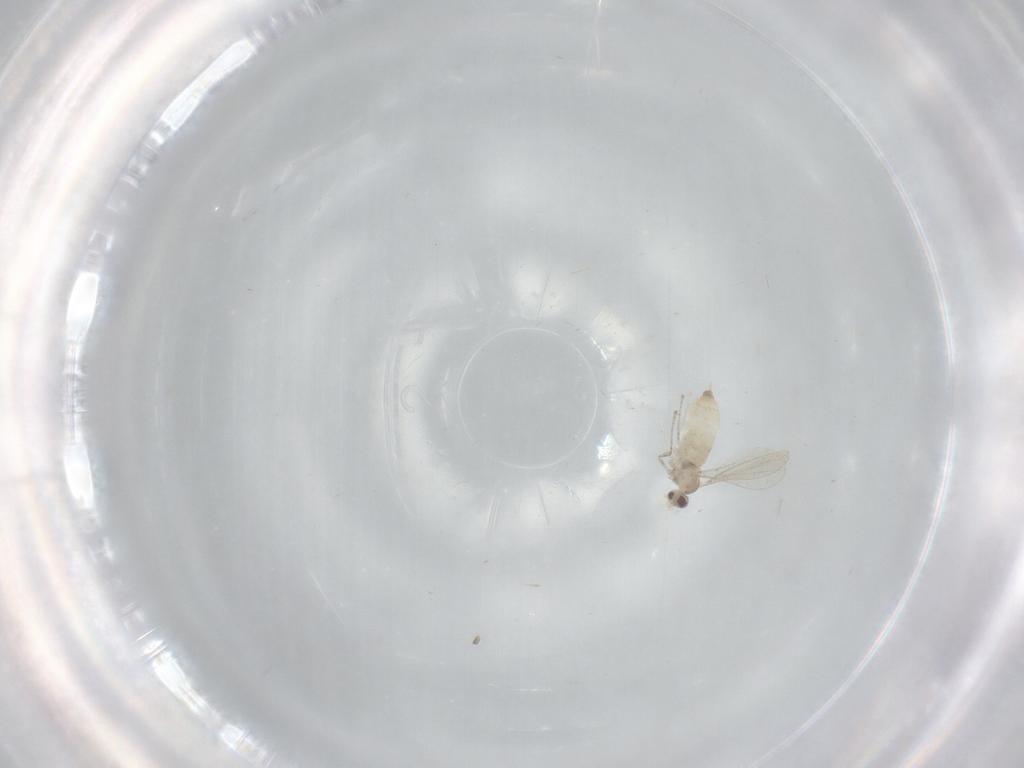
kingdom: Animalia
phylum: Arthropoda
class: Insecta
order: Diptera
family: Cecidomyiidae
